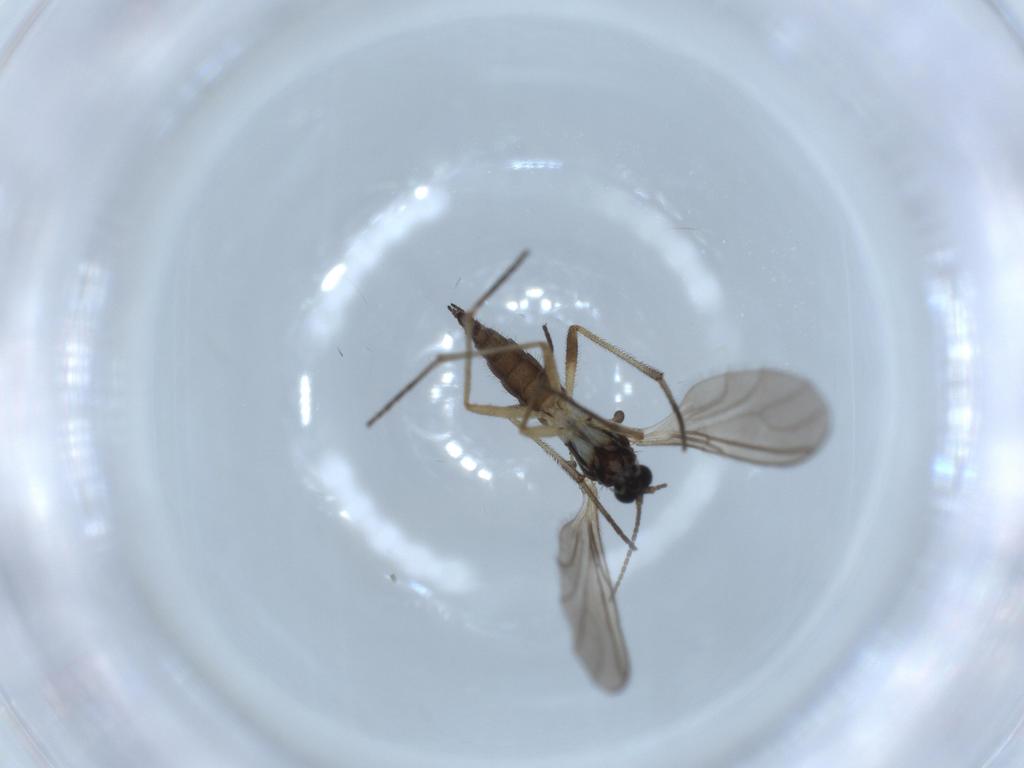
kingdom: Animalia
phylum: Arthropoda
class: Insecta
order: Diptera
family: Sciaridae
